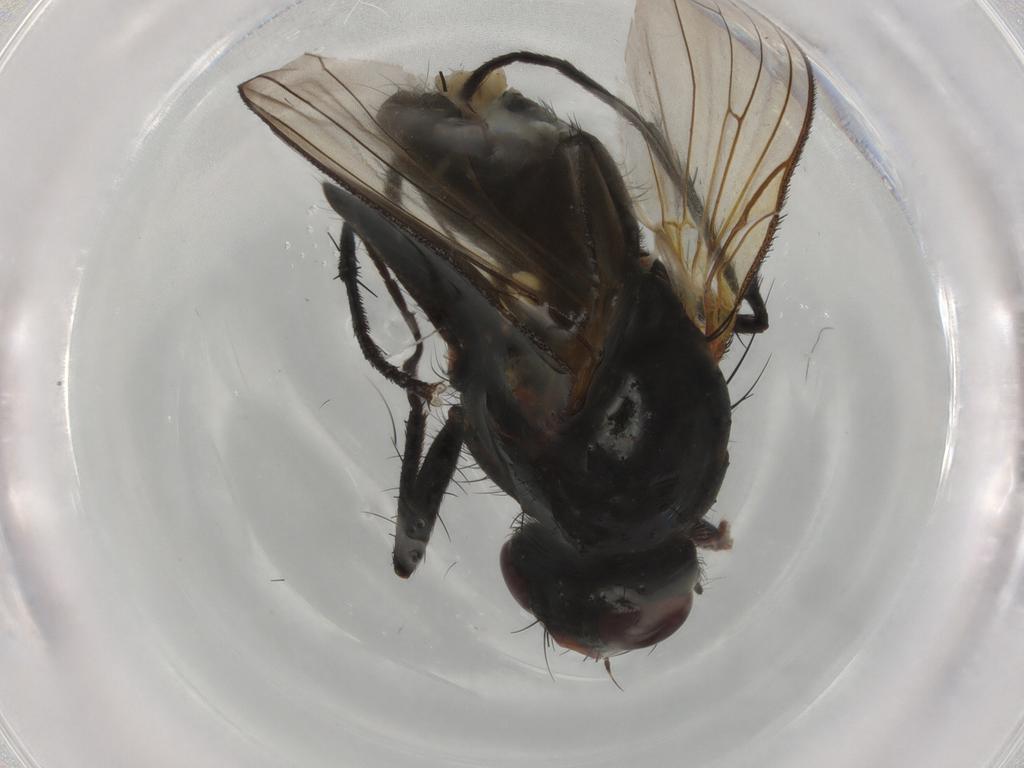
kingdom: Animalia
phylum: Arthropoda
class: Insecta
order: Diptera
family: Anthomyiidae
